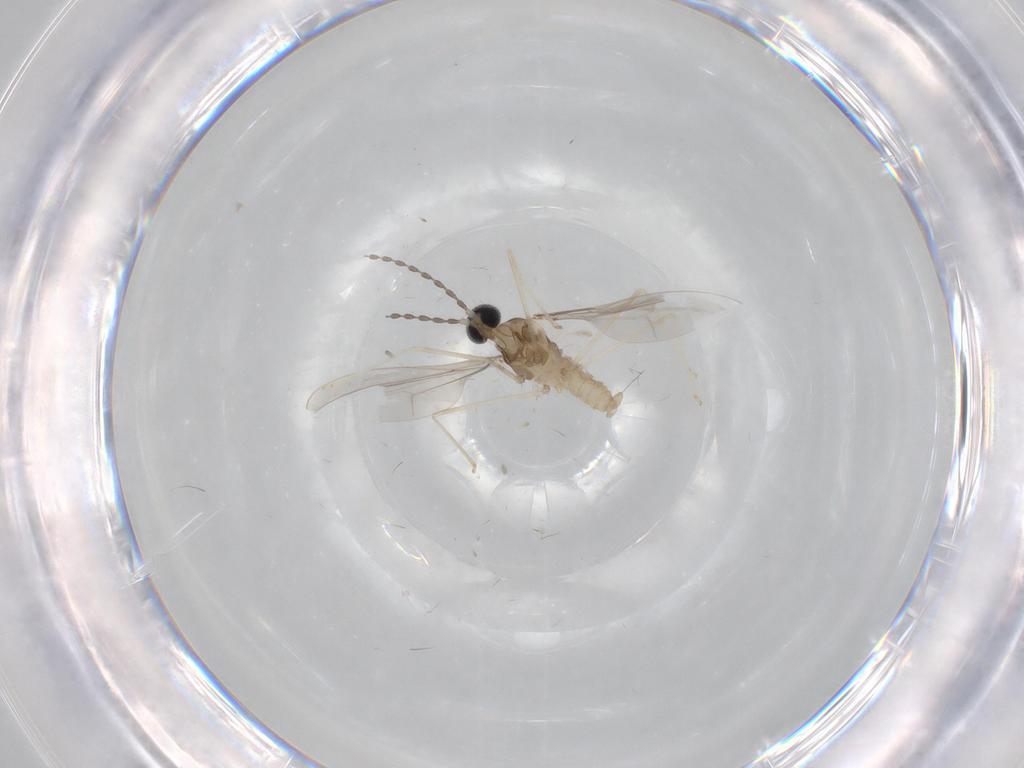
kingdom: Animalia
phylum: Arthropoda
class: Insecta
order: Diptera
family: Cecidomyiidae
